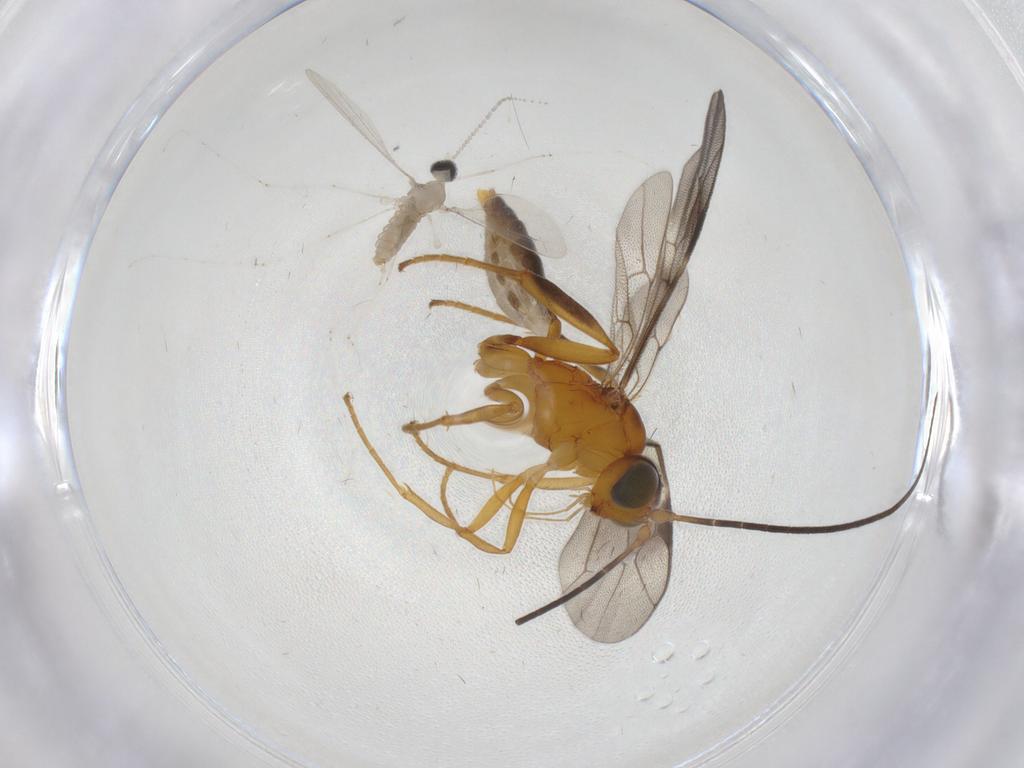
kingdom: Animalia
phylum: Arthropoda
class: Insecta
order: Diptera
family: Cecidomyiidae
